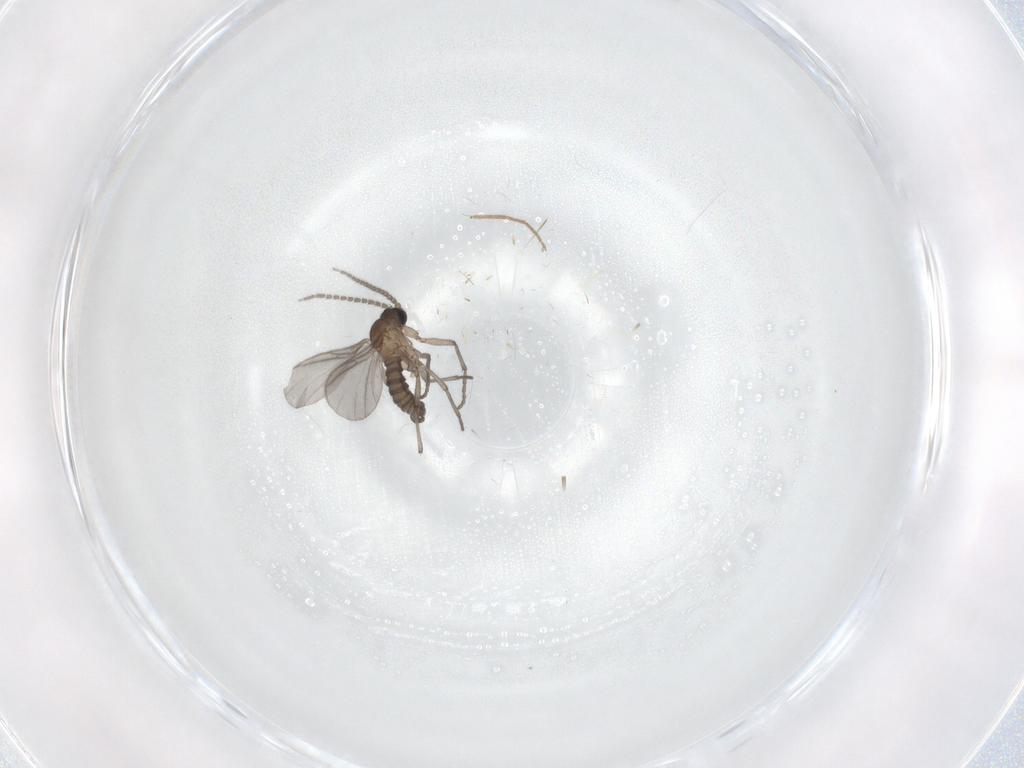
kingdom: Animalia
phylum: Arthropoda
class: Insecta
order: Diptera
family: Sciaridae
